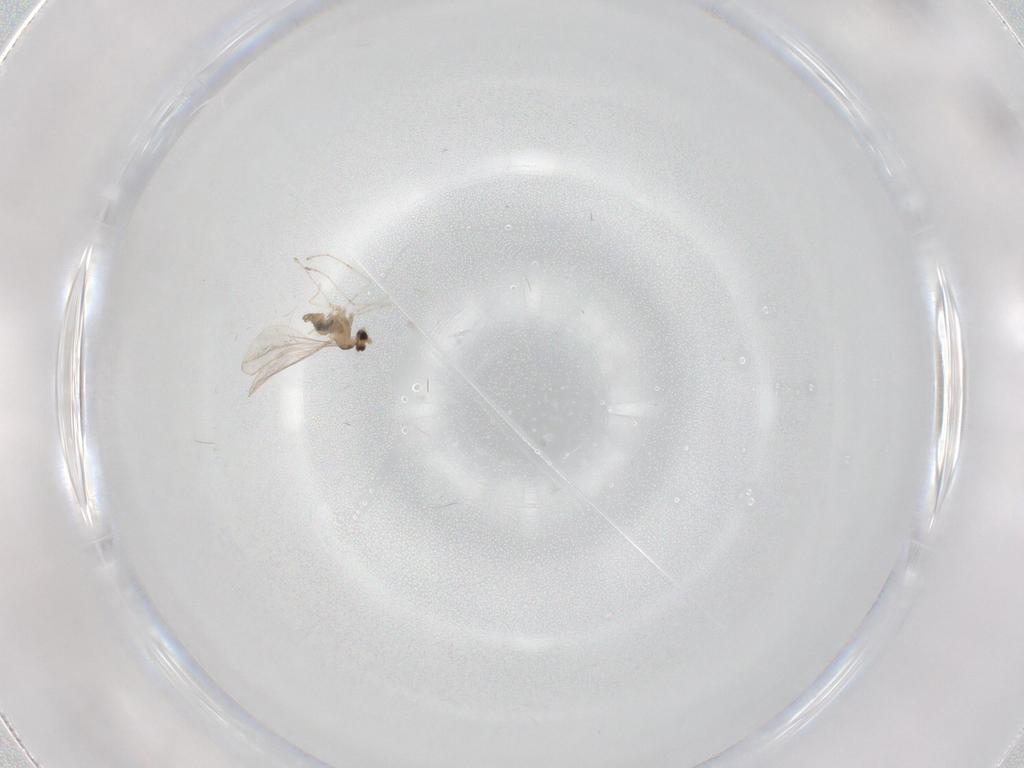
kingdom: Animalia
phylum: Arthropoda
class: Insecta
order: Diptera
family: Cecidomyiidae
